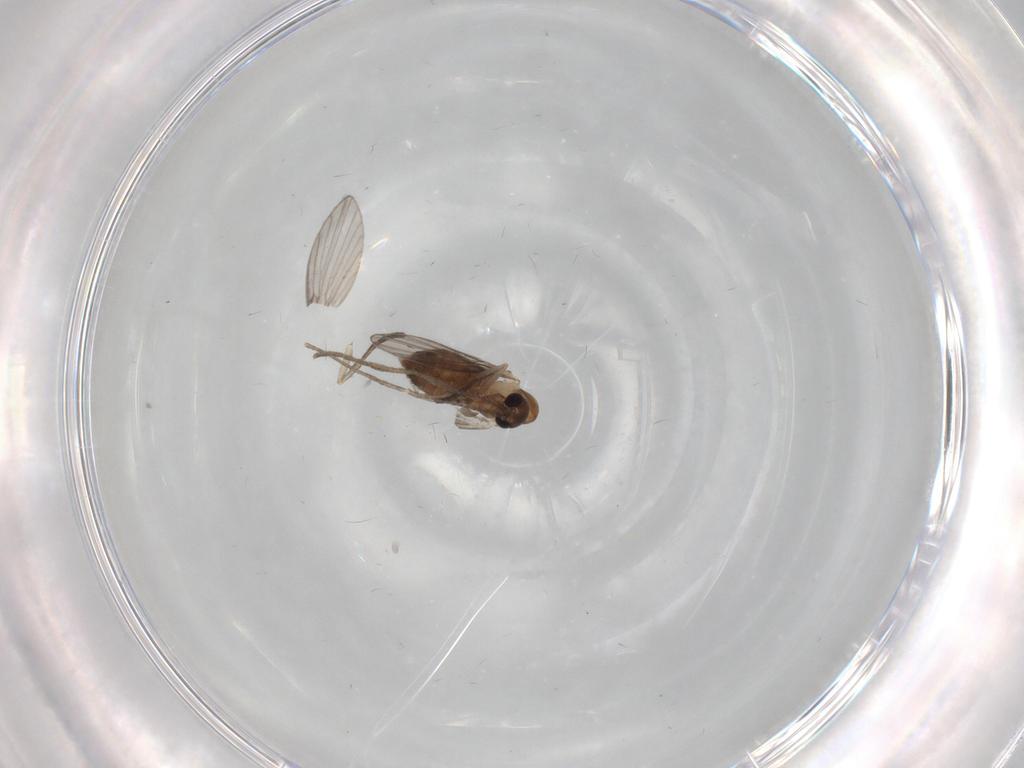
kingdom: Animalia
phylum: Arthropoda
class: Insecta
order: Diptera
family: Psychodidae
